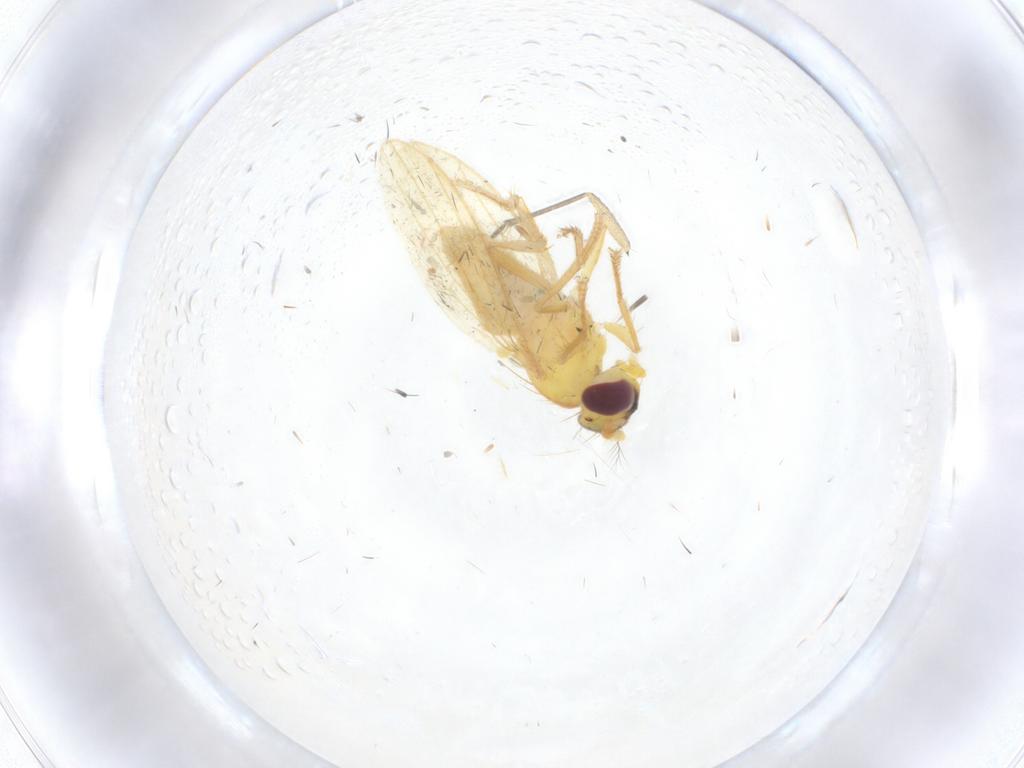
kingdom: Animalia
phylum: Arthropoda
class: Insecta
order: Diptera
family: Periscelididae
